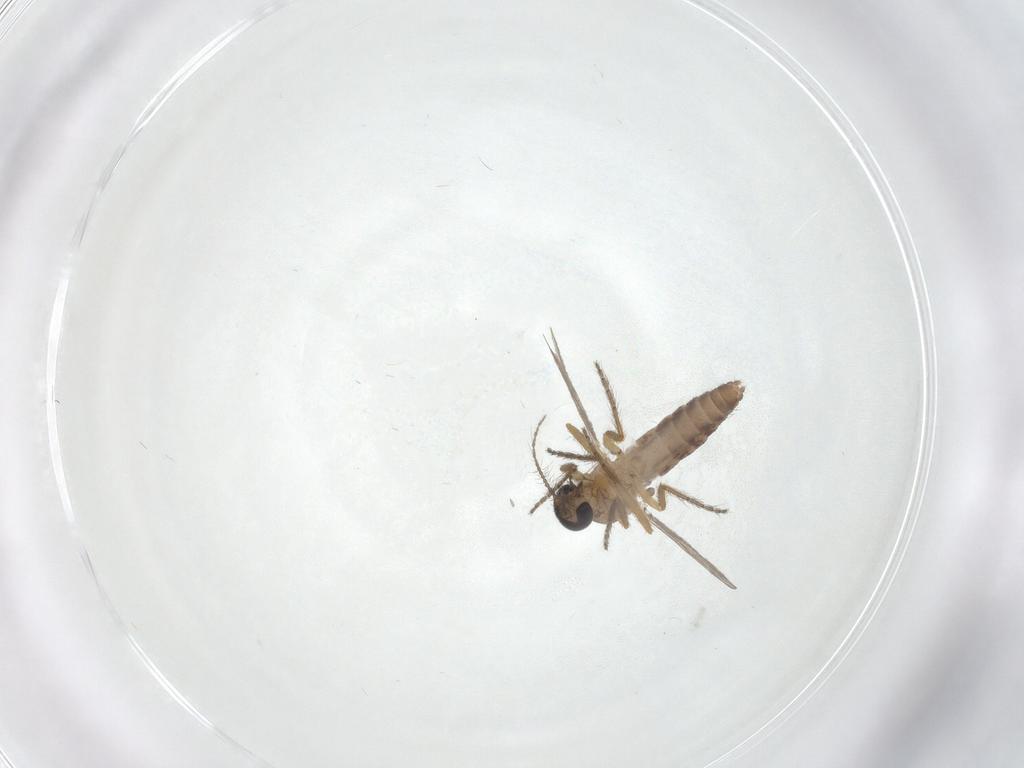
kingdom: Animalia
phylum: Arthropoda
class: Insecta
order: Diptera
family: Ceratopogonidae
